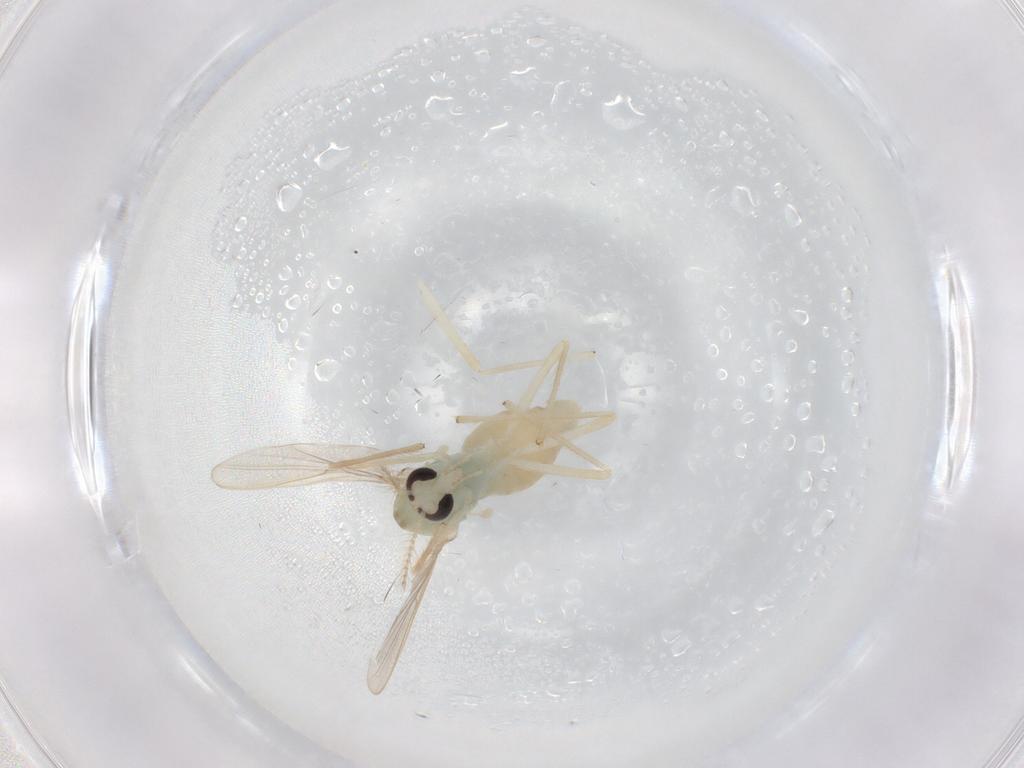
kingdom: Animalia
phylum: Arthropoda
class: Insecta
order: Diptera
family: Chironomidae
